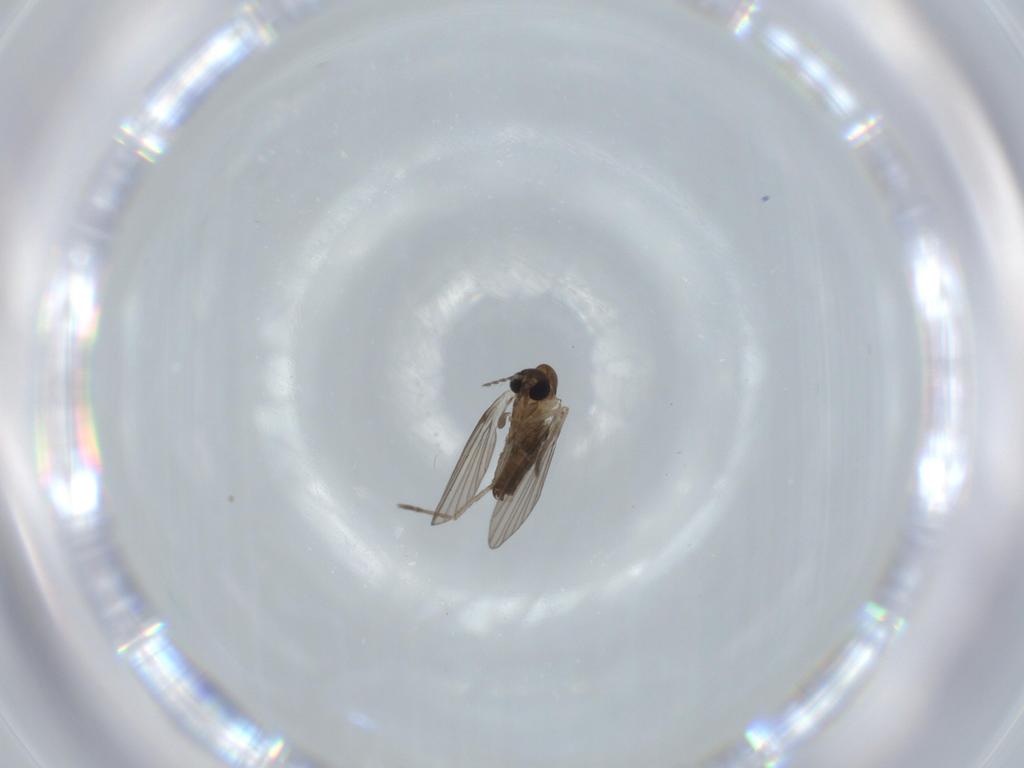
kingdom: Animalia
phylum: Arthropoda
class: Insecta
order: Diptera
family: Psychodidae
